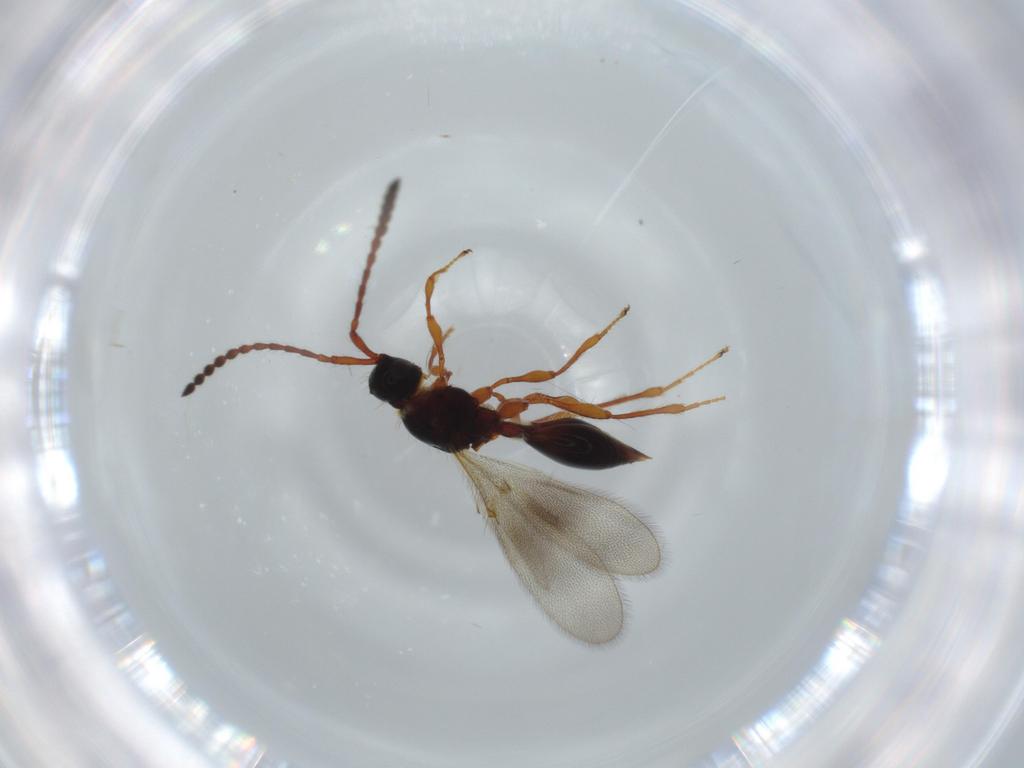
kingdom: Animalia
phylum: Arthropoda
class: Insecta
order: Hymenoptera
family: Diapriidae
